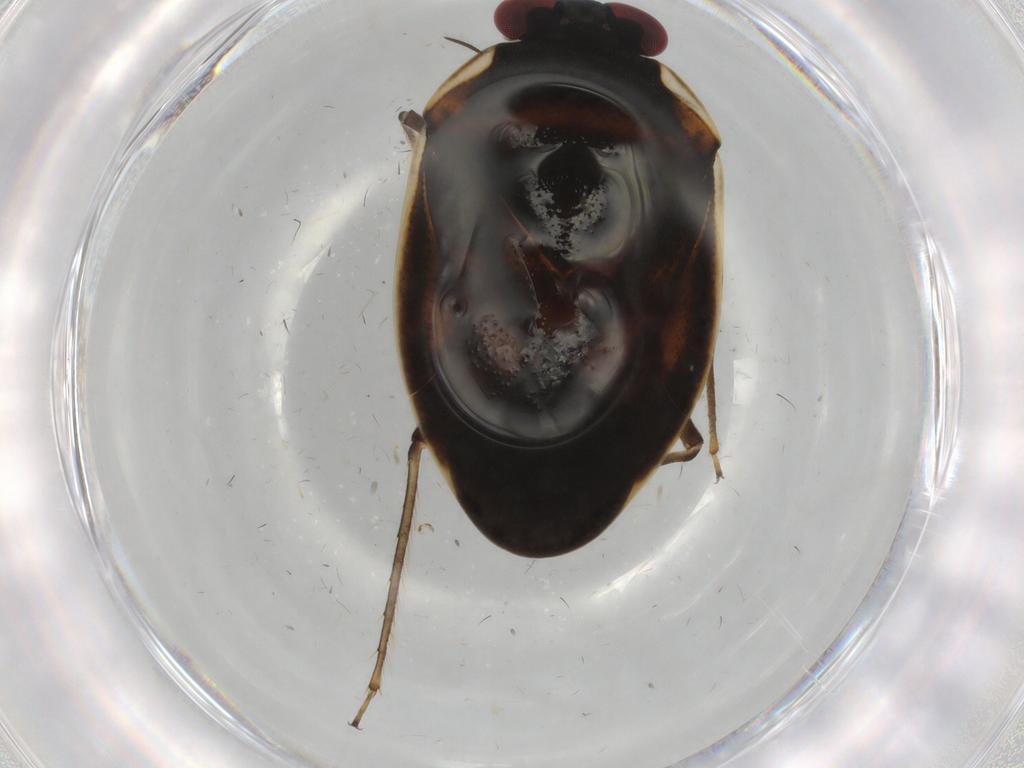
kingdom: Animalia
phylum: Arthropoda
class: Insecta
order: Hemiptera
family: Ochteridae
